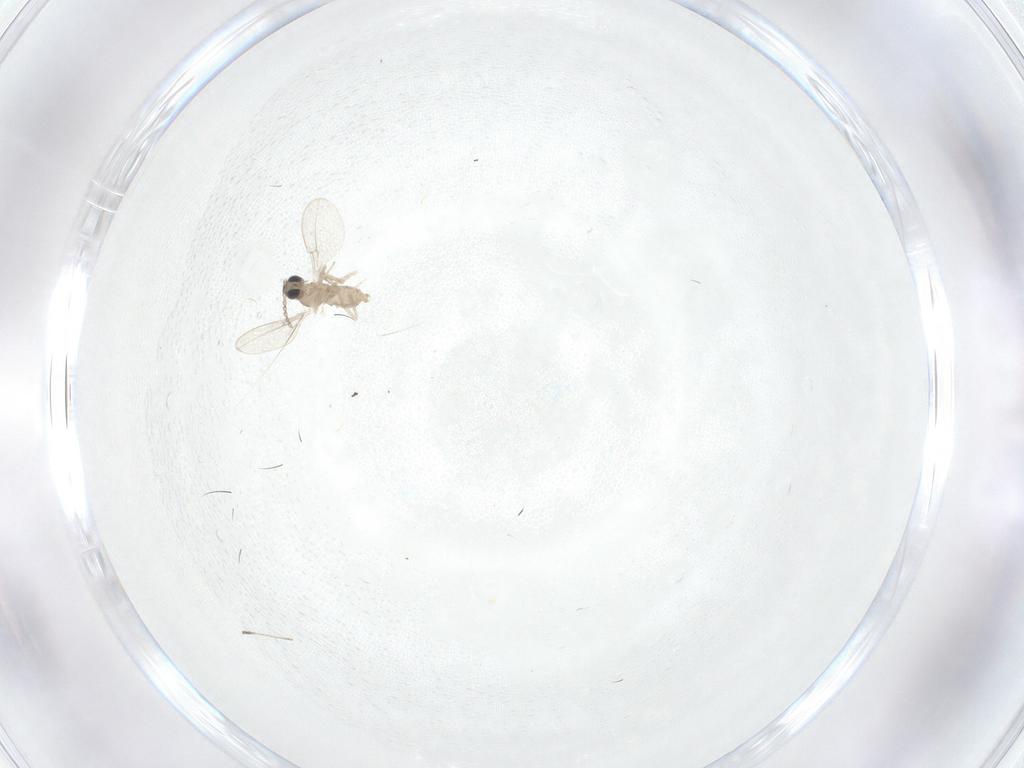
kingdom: Animalia
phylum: Arthropoda
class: Insecta
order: Diptera
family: Cecidomyiidae
